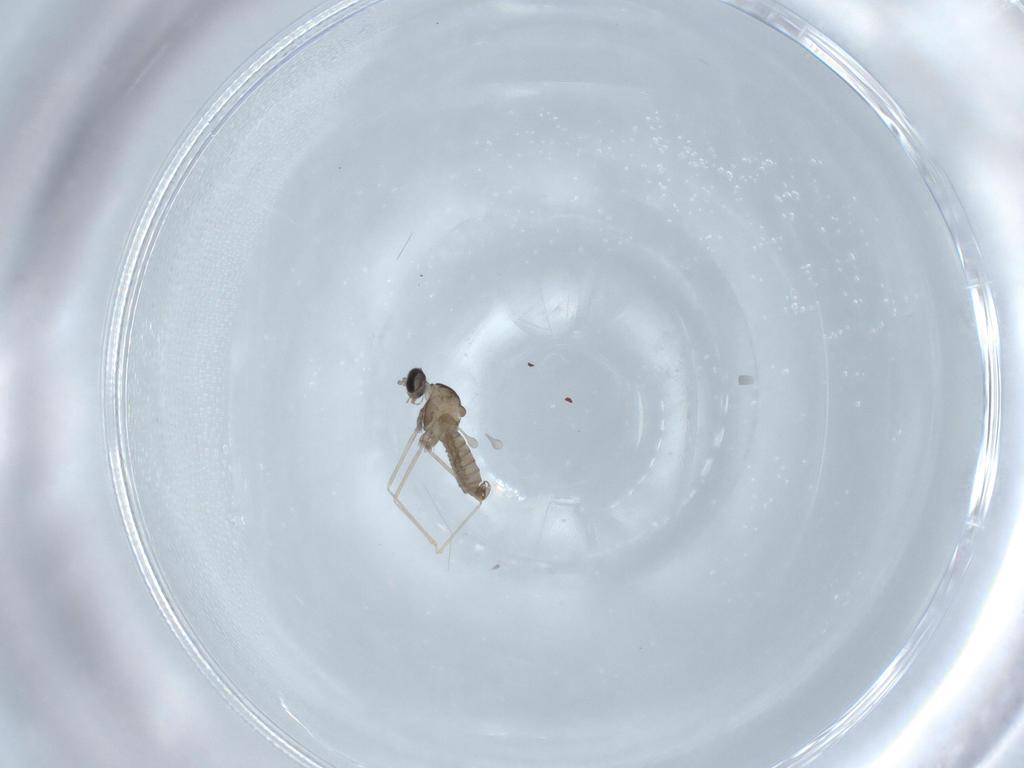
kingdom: Animalia
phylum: Arthropoda
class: Insecta
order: Diptera
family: Cecidomyiidae
